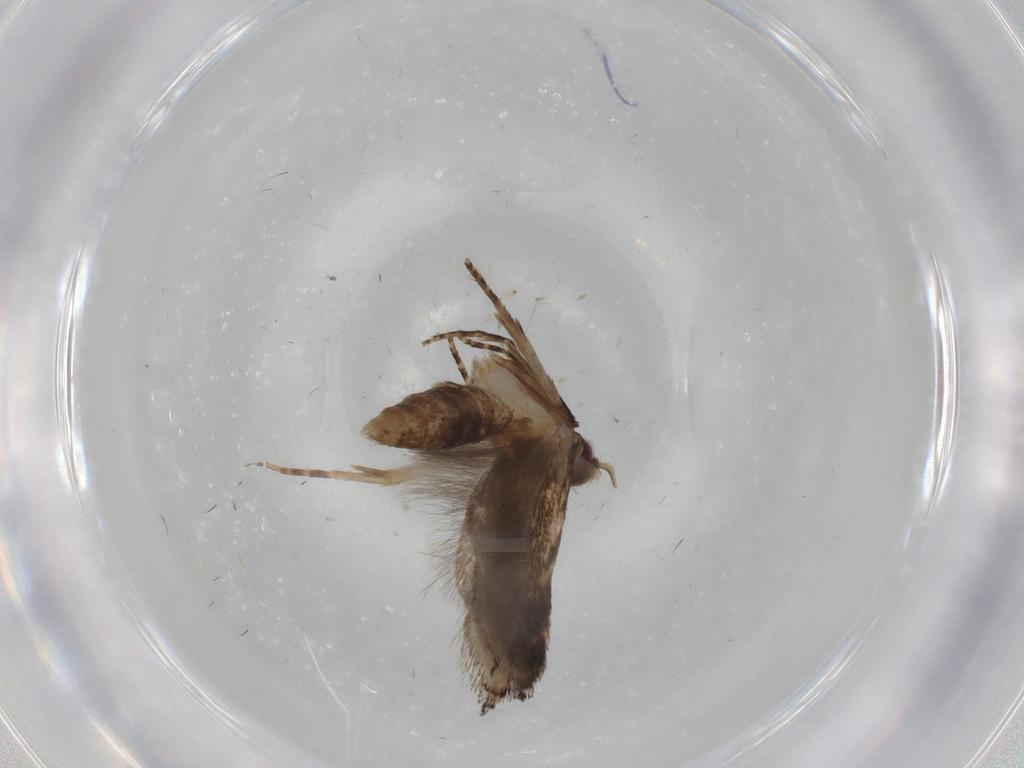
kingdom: Animalia
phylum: Arthropoda
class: Insecta
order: Lepidoptera
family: Gelechiidae
